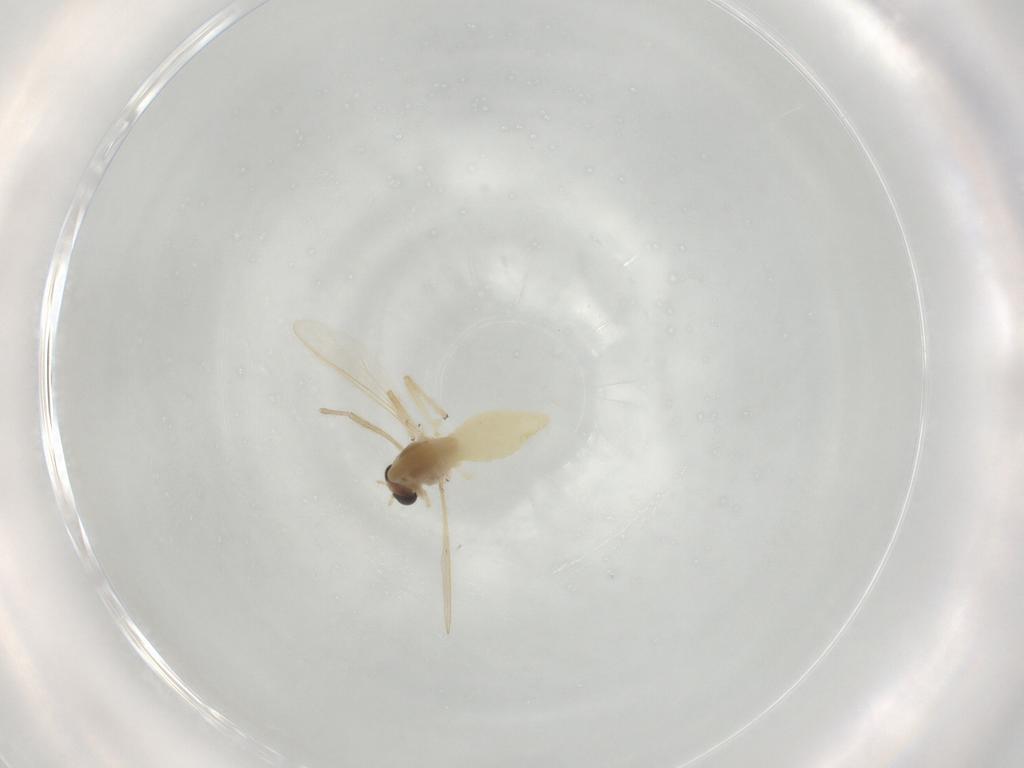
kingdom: Animalia
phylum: Arthropoda
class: Insecta
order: Diptera
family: Chironomidae
